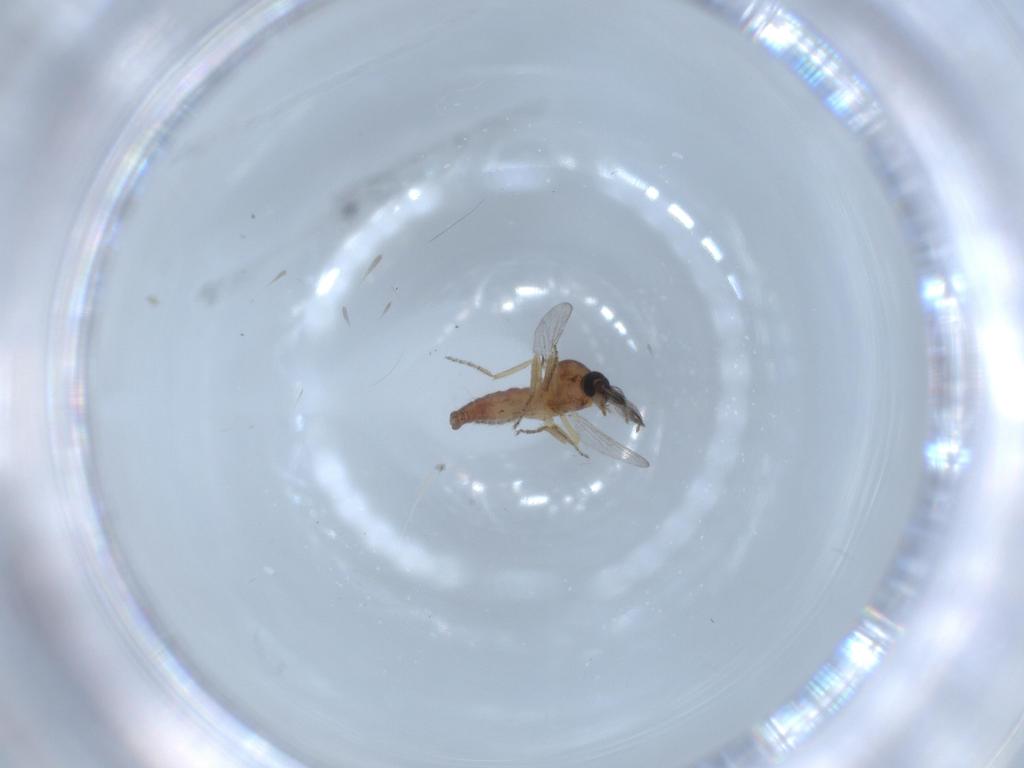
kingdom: Animalia
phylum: Arthropoda
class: Insecta
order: Diptera
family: Ceratopogonidae
